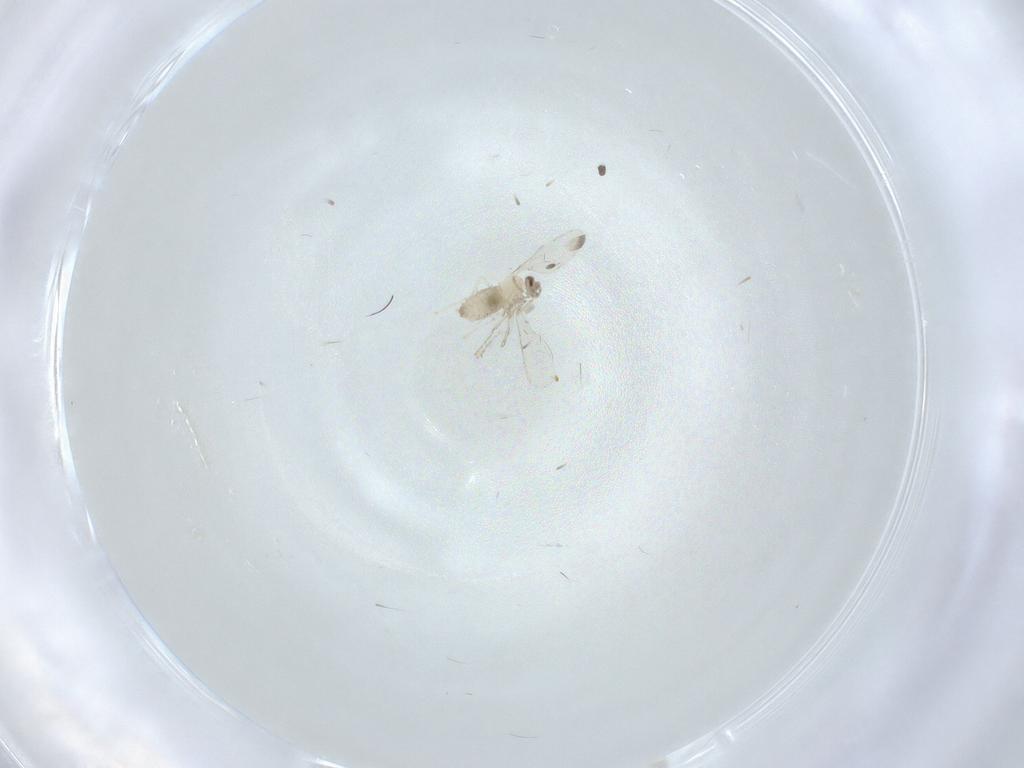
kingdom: Animalia
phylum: Arthropoda
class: Insecta
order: Diptera
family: Cecidomyiidae
